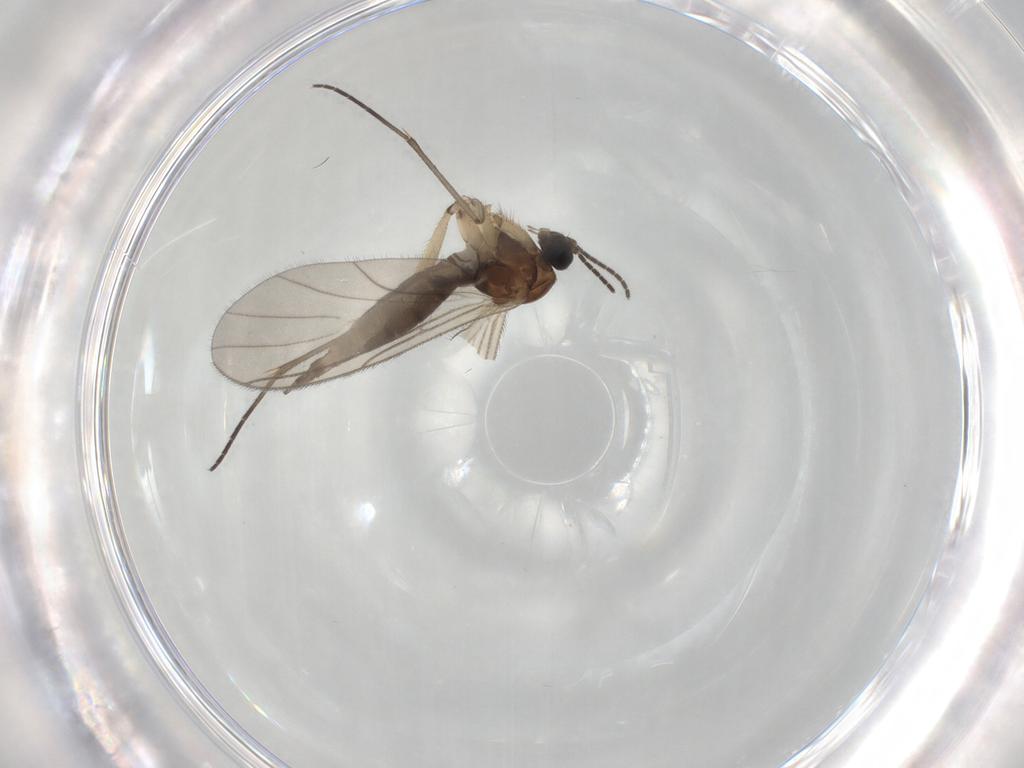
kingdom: Animalia
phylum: Arthropoda
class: Insecta
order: Diptera
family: Sciaridae
